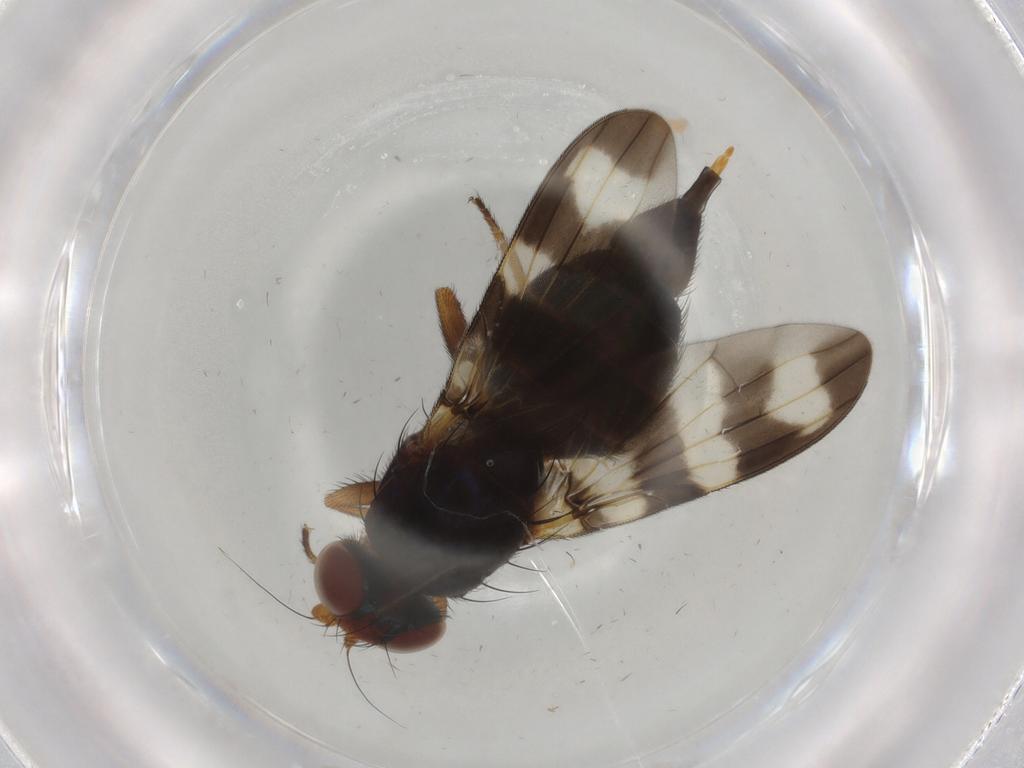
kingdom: Animalia
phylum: Arthropoda
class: Insecta
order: Diptera
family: Ulidiidae
